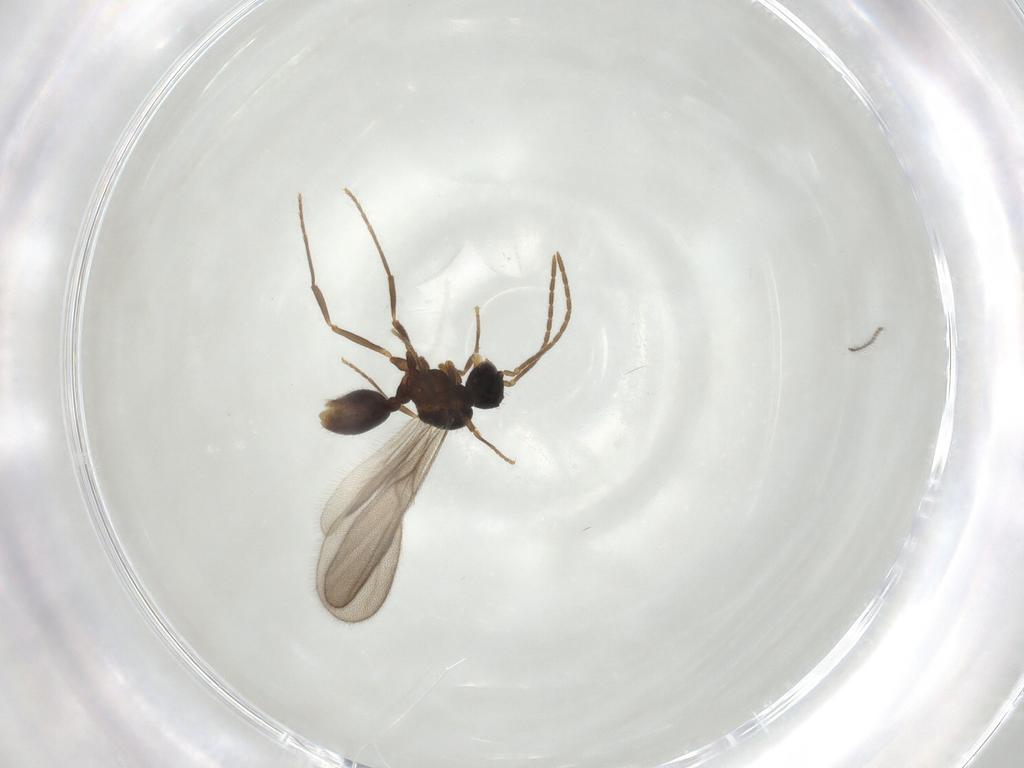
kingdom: Animalia
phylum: Arthropoda
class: Insecta
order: Hymenoptera
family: Formicidae
